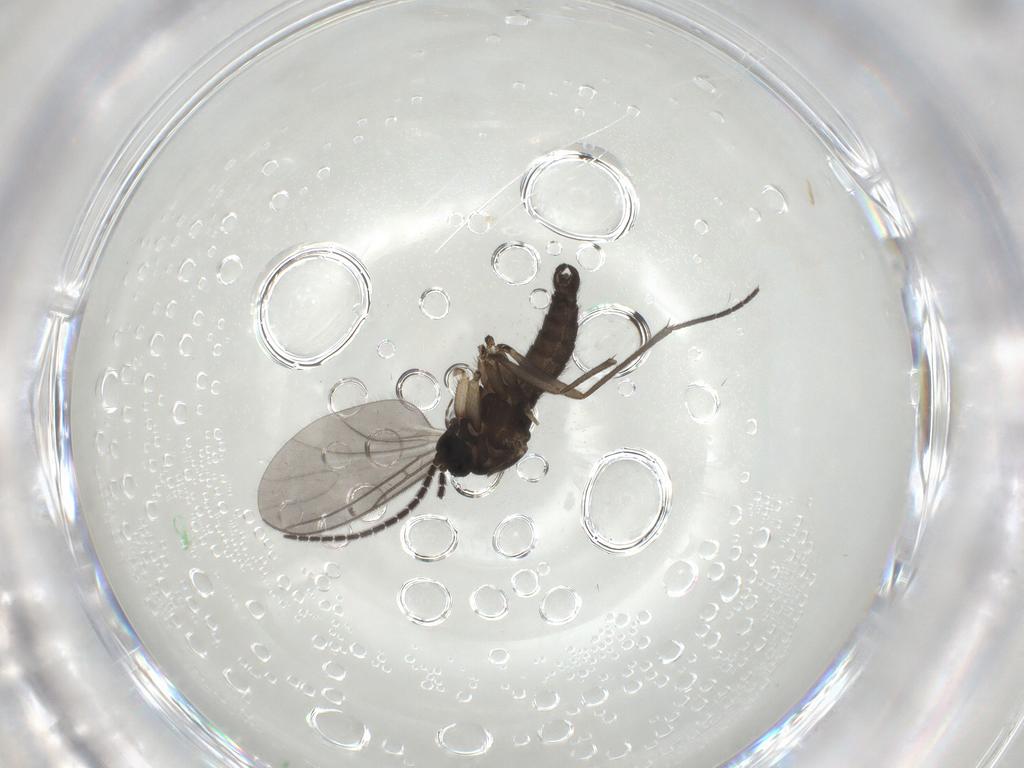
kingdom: Animalia
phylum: Arthropoda
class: Insecta
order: Diptera
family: Sciaridae
